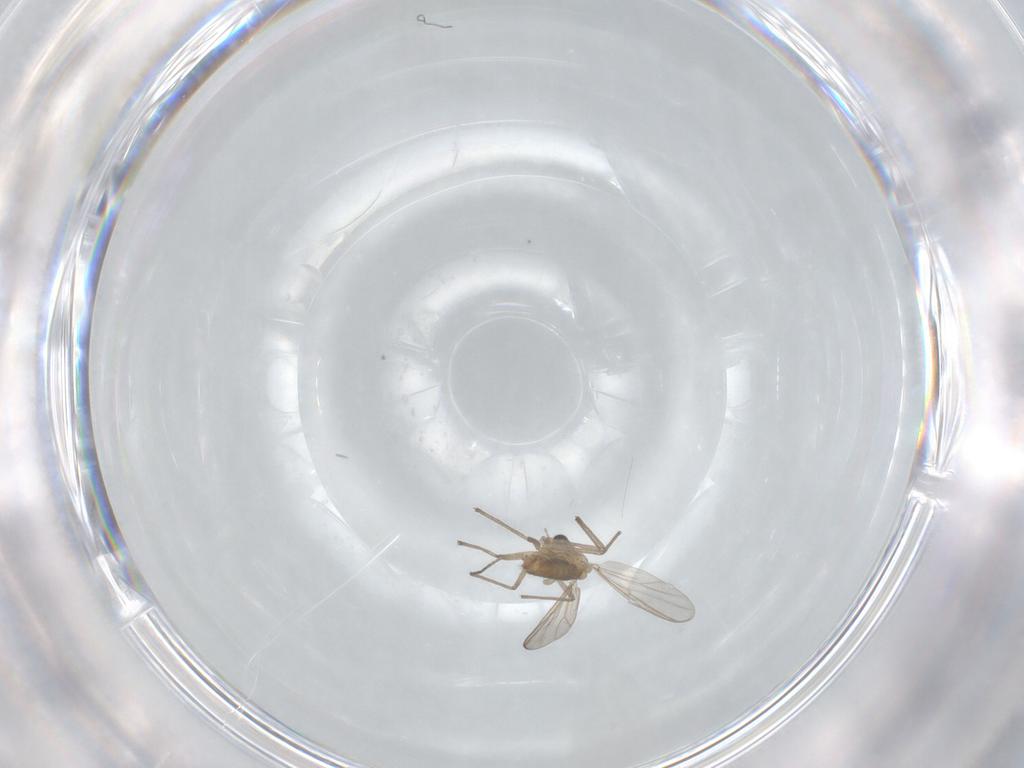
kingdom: Animalia
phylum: Arthropoda
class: Insecta
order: Diptera
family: Chironomidae
